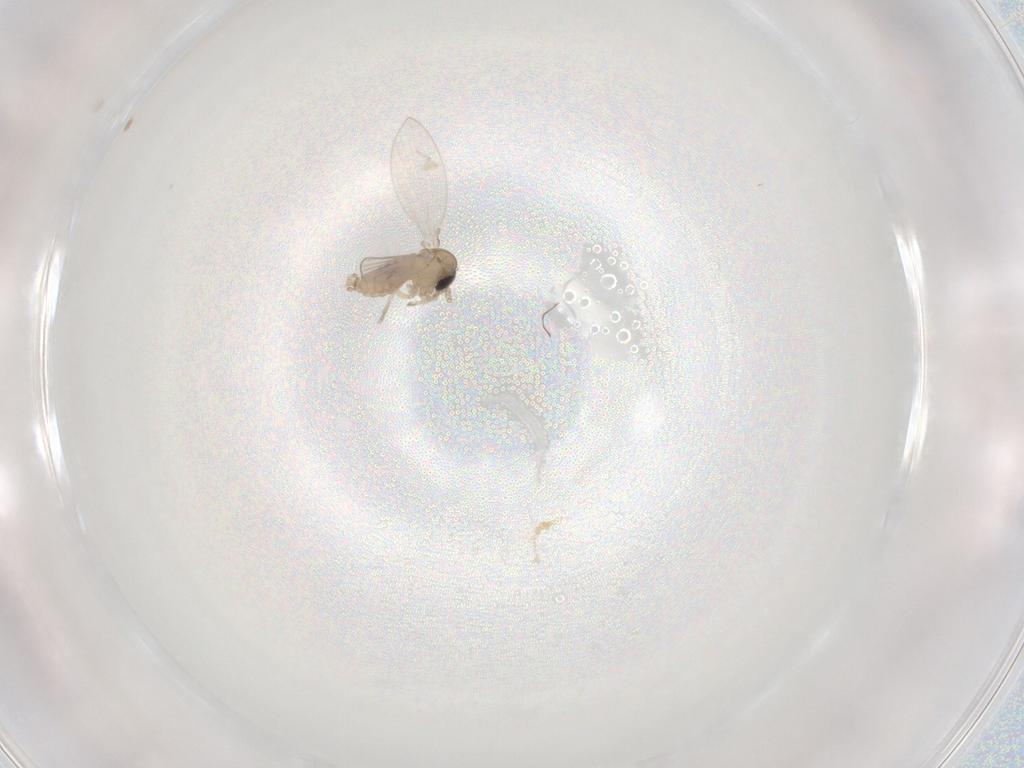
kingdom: Animalia
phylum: Arthropoda
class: Insecta
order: Diptera
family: Psychodidae
